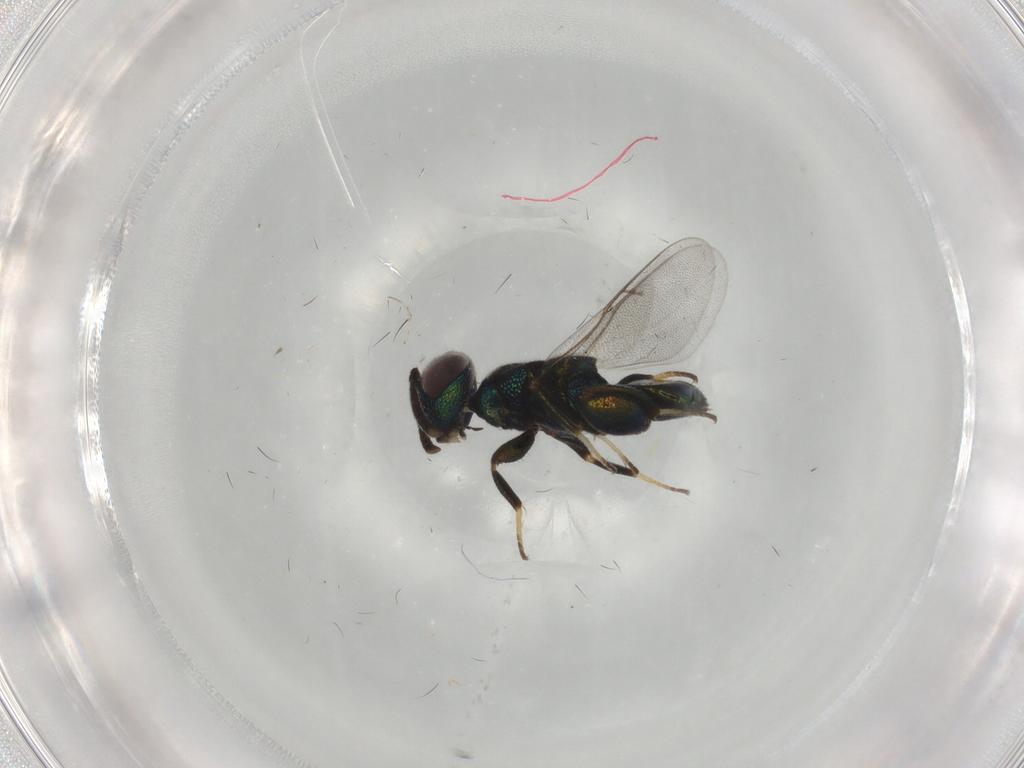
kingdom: Animalia
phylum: Arthropoda
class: Insecta
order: Hymenoptera
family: Pteromalidae
